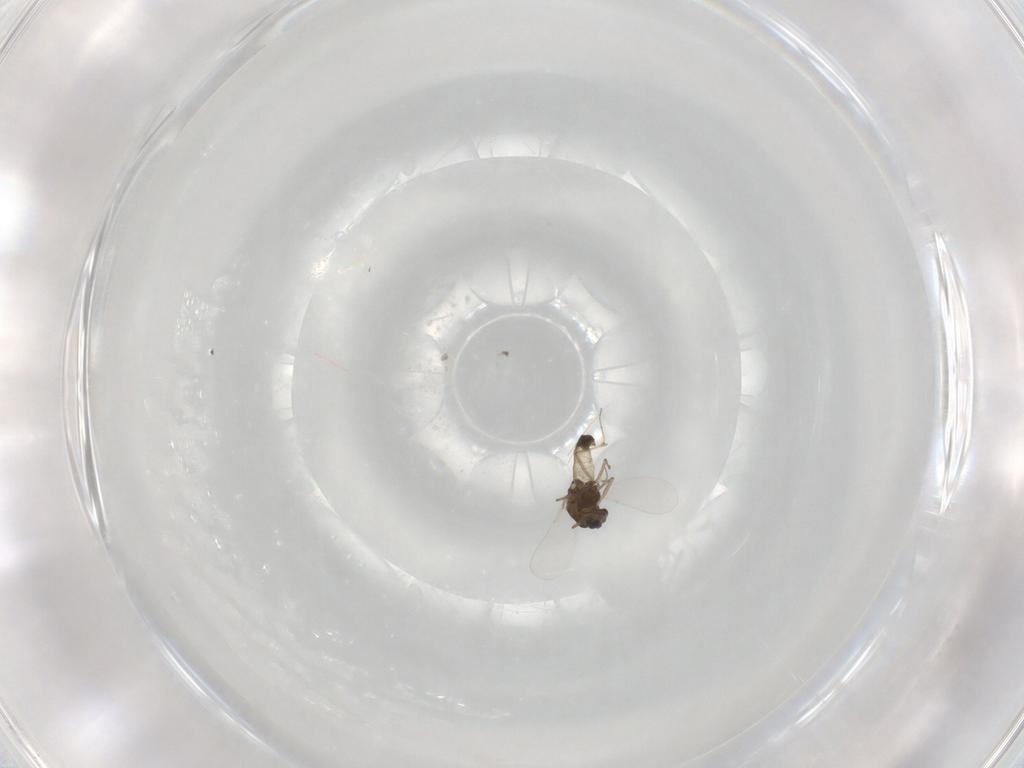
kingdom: Animalia
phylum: Arthropoda
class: Insecta
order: Diptera
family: Chironomidae
